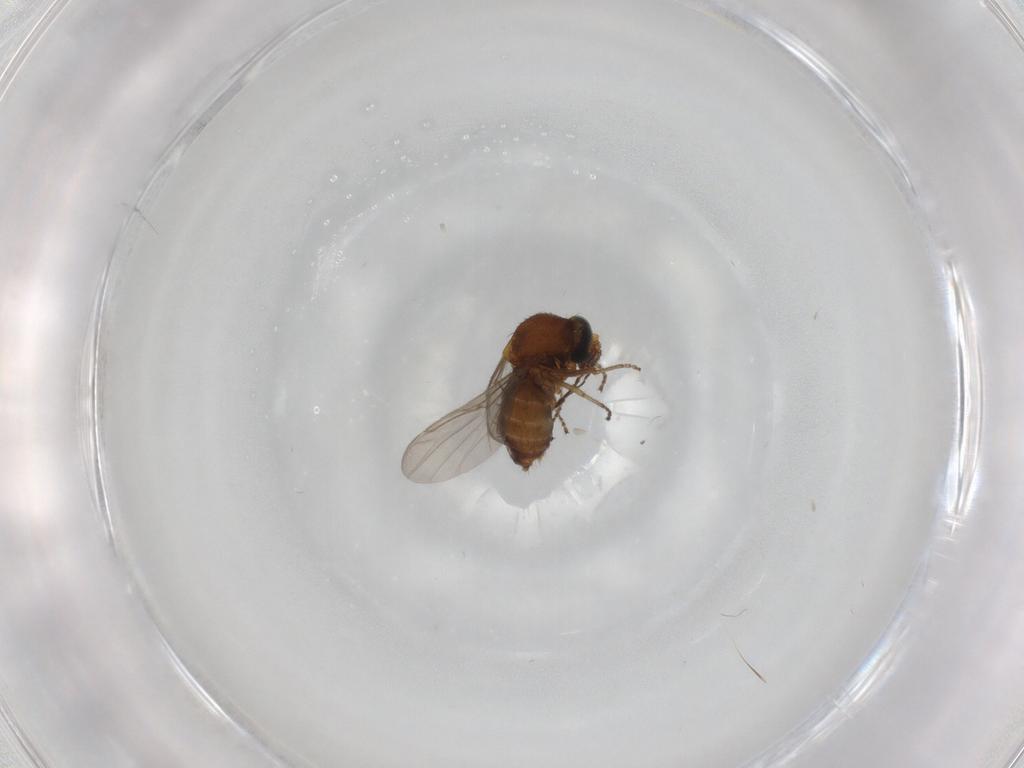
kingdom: Animalia
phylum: Arthropoda
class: Insecta
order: Diptera
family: Ceratopogonidae
